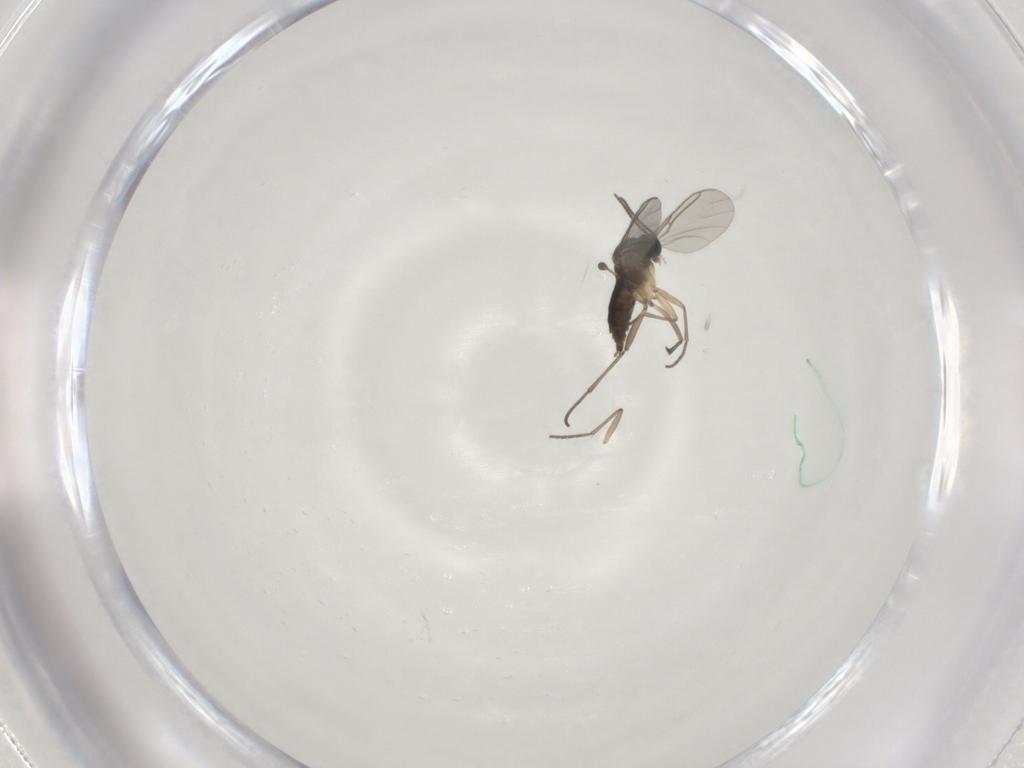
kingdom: Animalia
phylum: Arthropoda
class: Insecta
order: Diptera
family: Sciaridae
